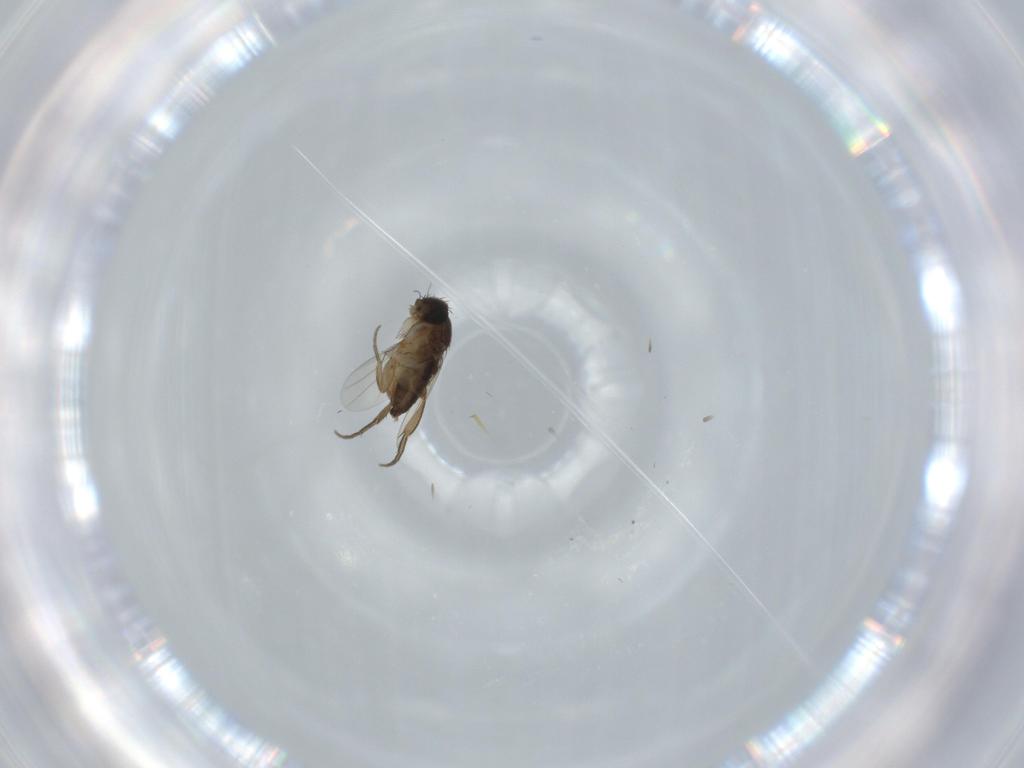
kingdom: Animalia
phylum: Arthropoda
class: Insecta
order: Diptera
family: Phoridae
